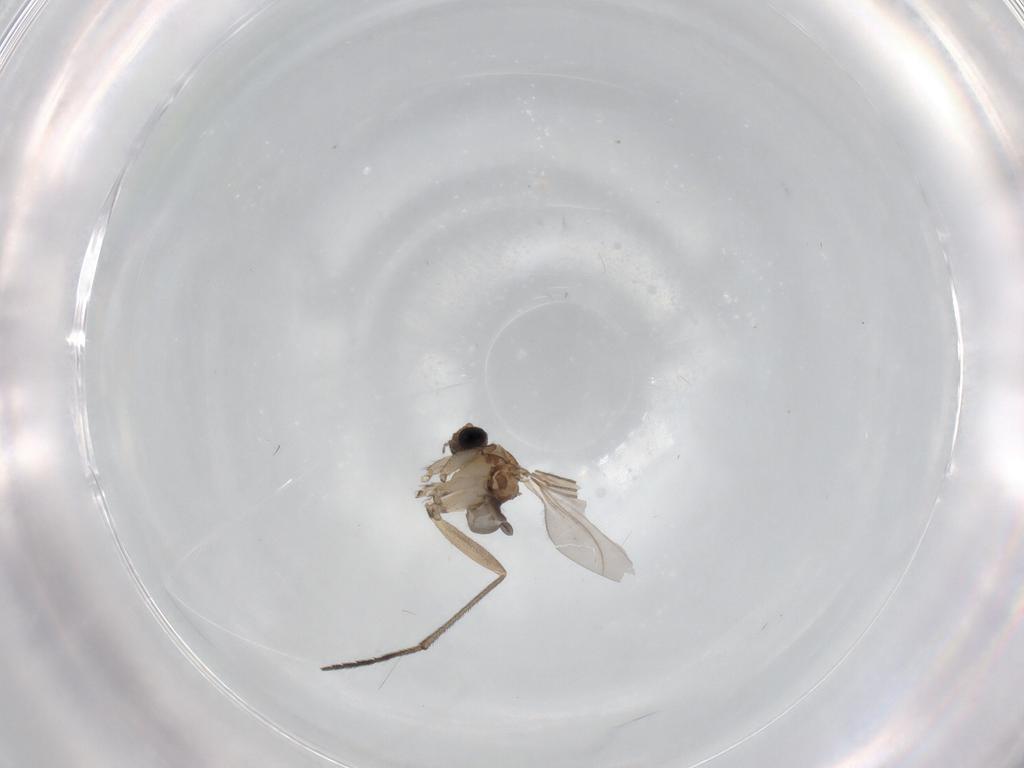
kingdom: Animalia
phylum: Arthropoda
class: Insecta
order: Diptera
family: Sciaridae
